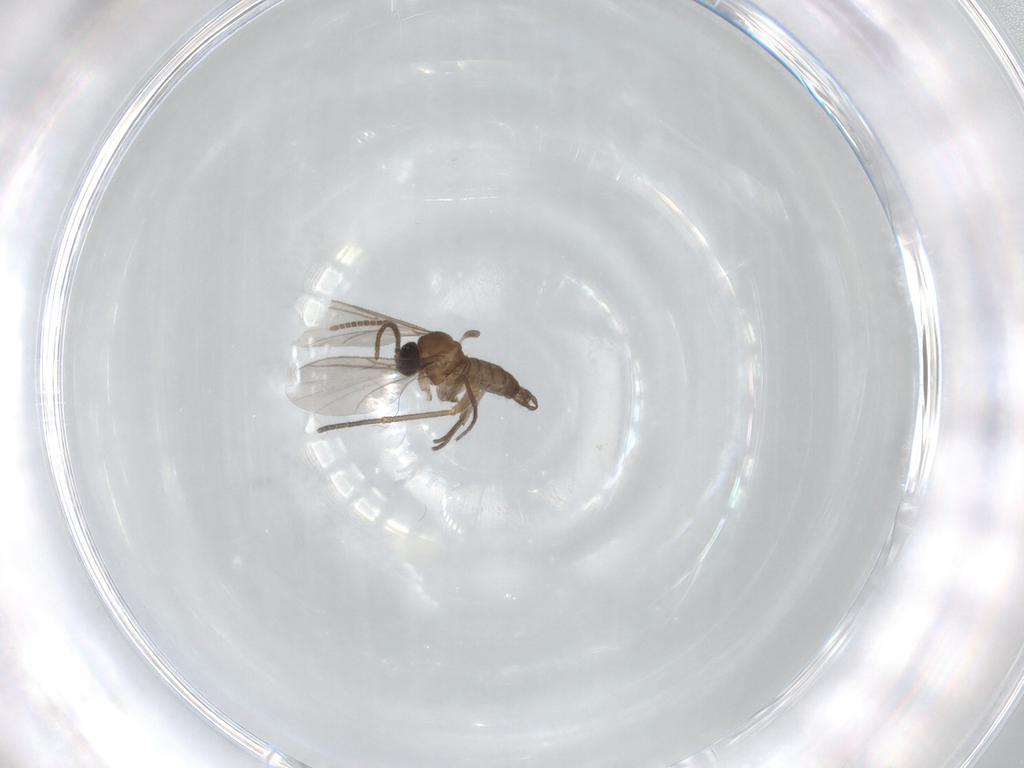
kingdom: Animalia
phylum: Arthropoda
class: Insecta
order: Diptera
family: Sciaridae
